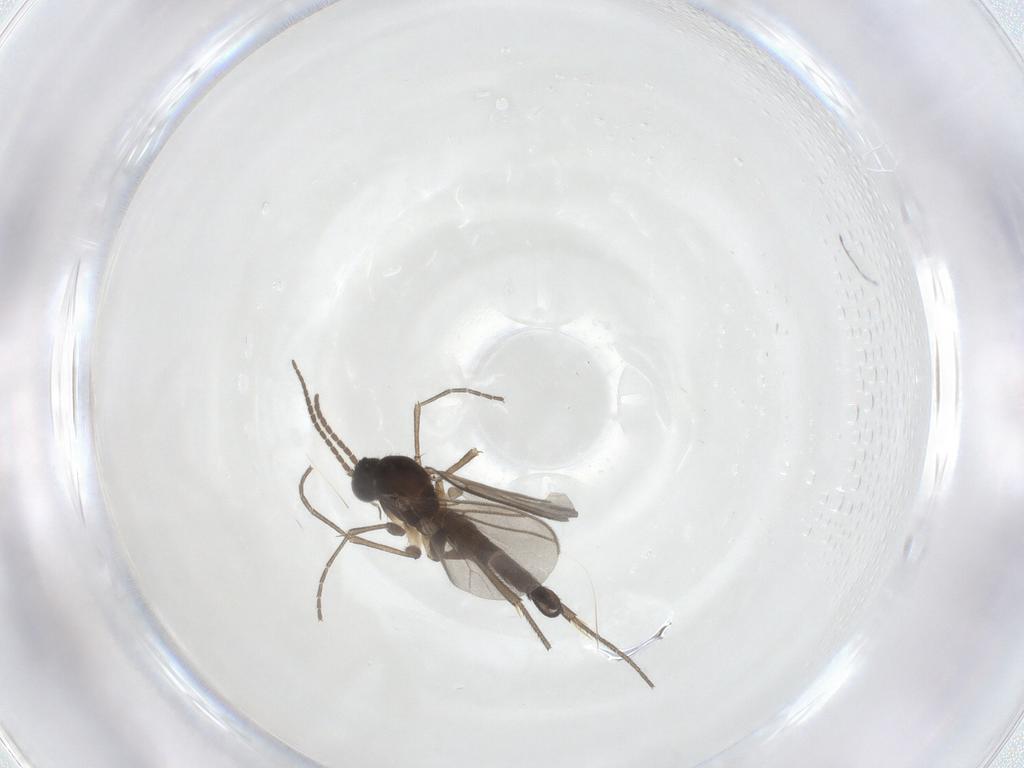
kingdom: Animalia
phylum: Arthropoda
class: Insecta
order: Diptera
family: Mycetophilidae
